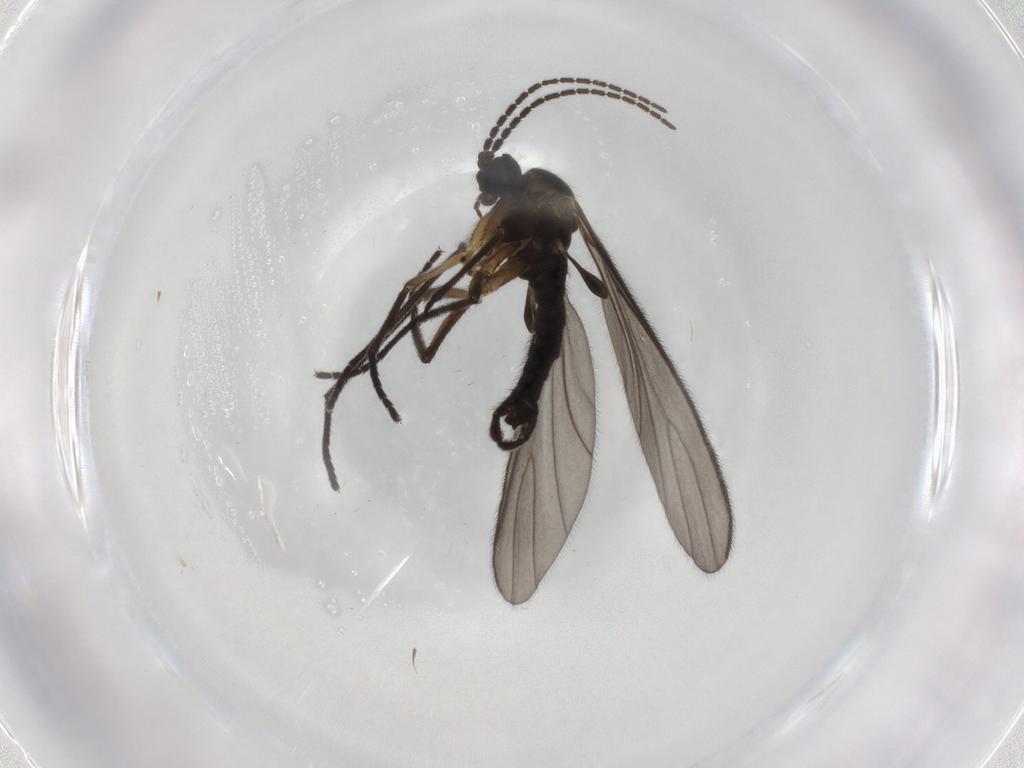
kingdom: Animalia
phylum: Arthropoda
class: Insecta
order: Diptera
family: Sciaridae
